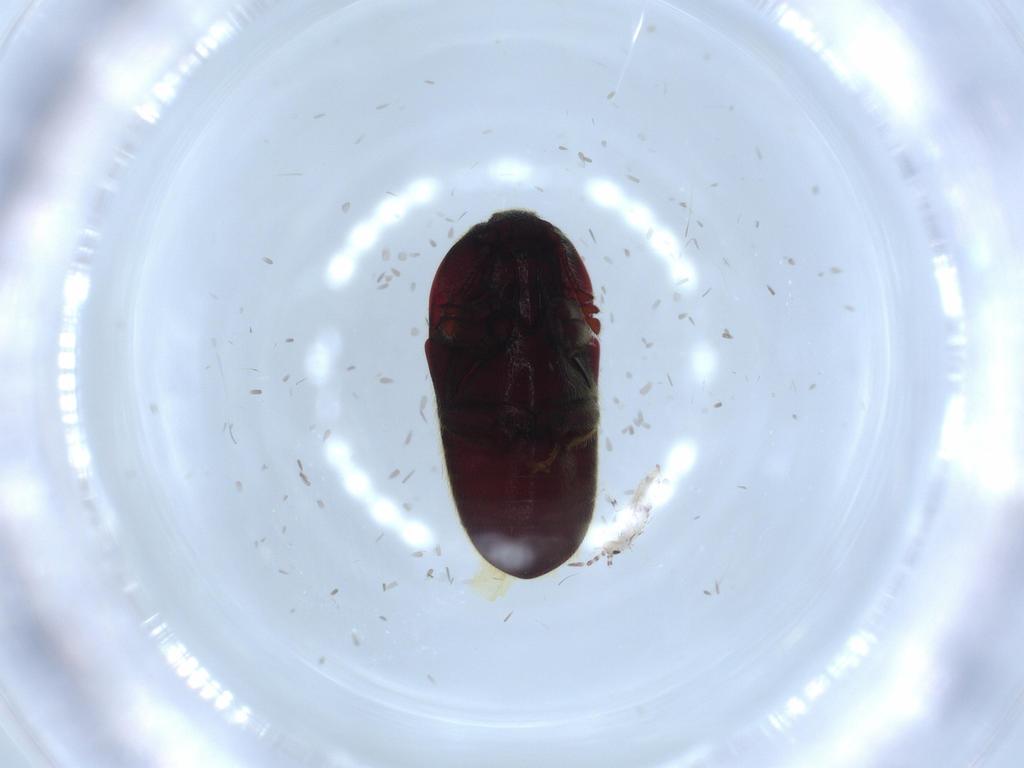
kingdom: Animalia
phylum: Arthropoda
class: Insecta
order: Coleoptera
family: Throscidae
